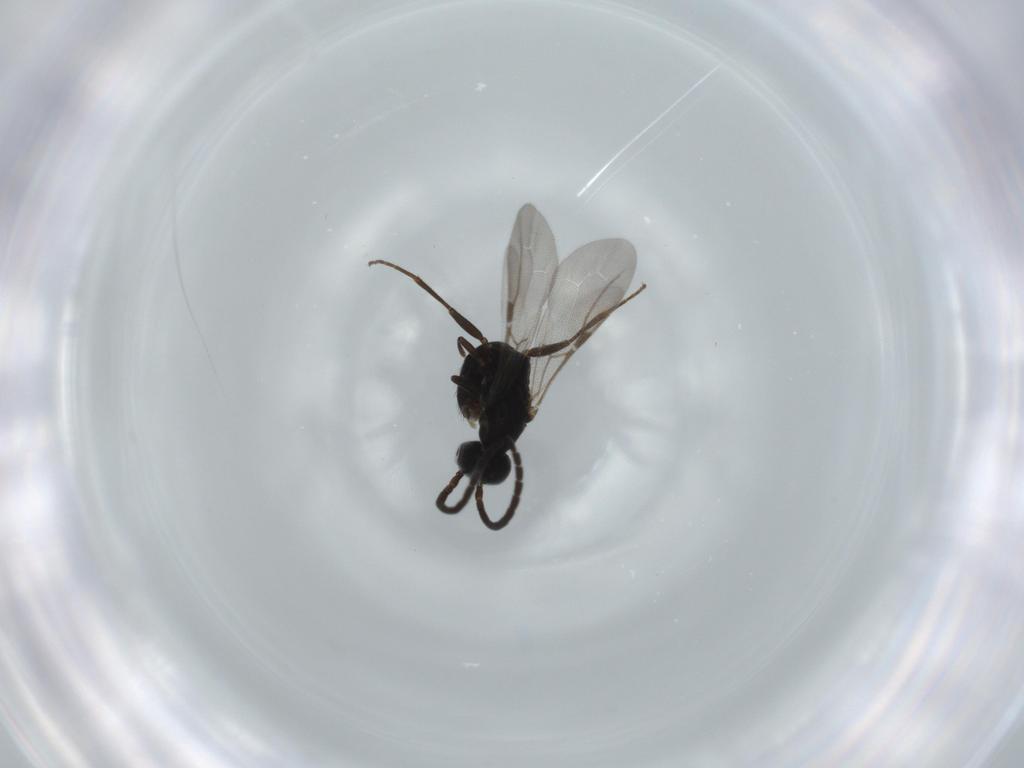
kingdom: Animalia
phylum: Arthropoda
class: Insecta
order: Hymenoptera
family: Bethylidae
